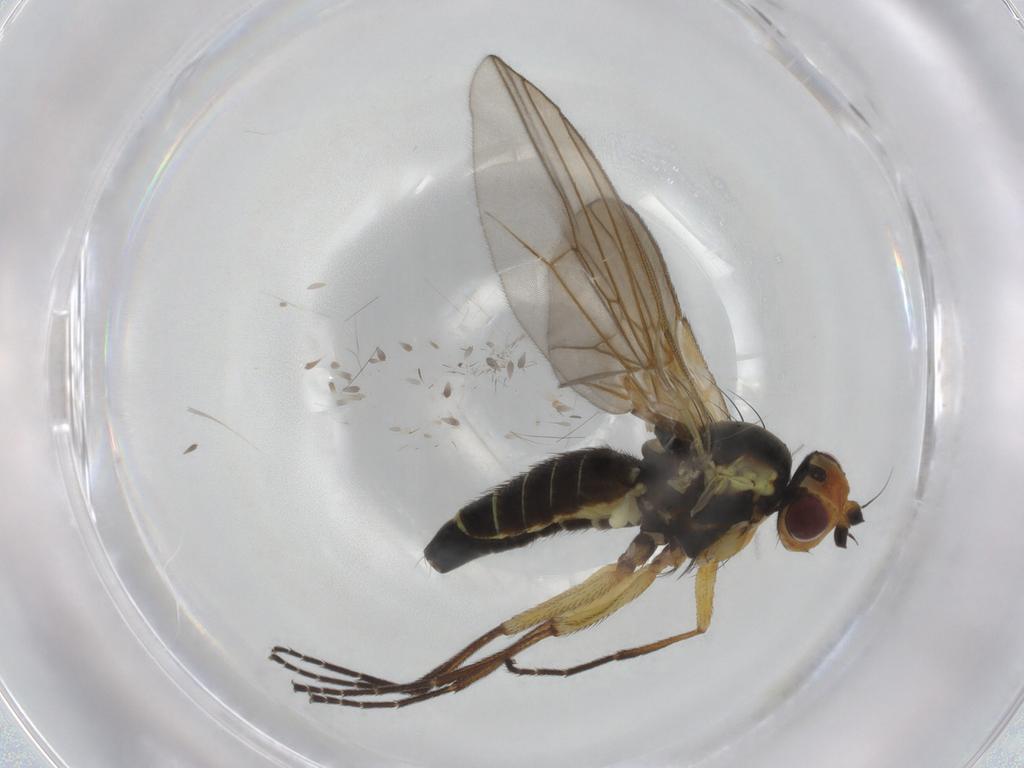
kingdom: Animalia
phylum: Arthropoda
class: Insecta
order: Diptera
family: Agromyzidae
